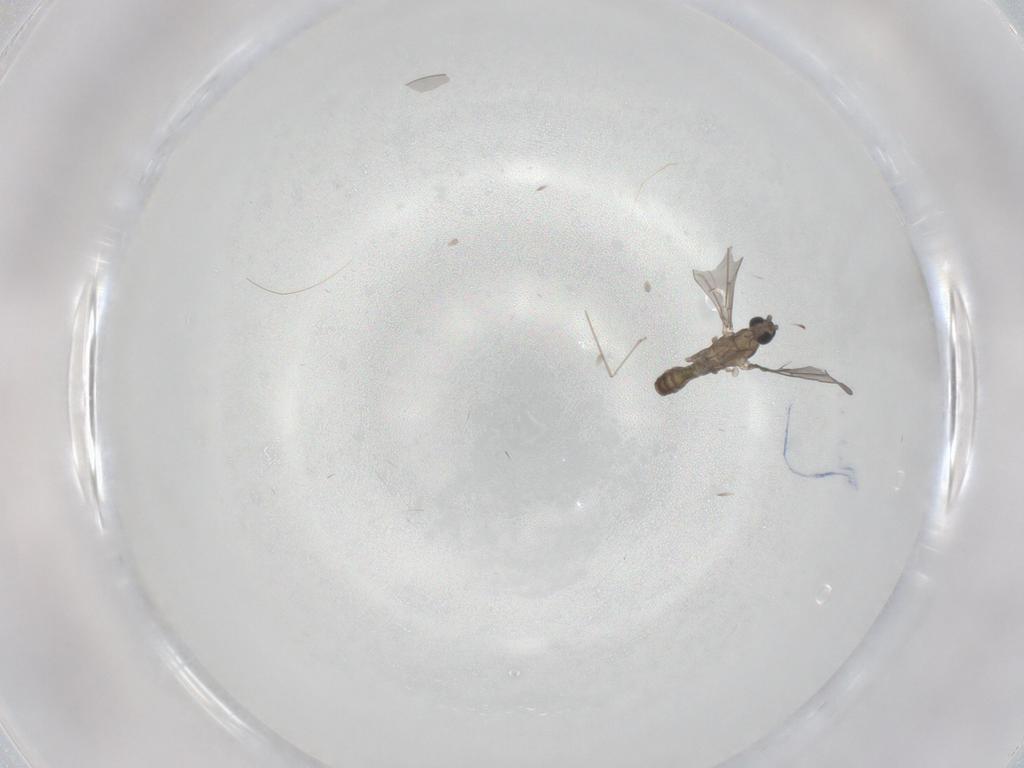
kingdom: Animalia
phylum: Arthropoda
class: Insecta
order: Diptera
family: Cecidomyiidae
